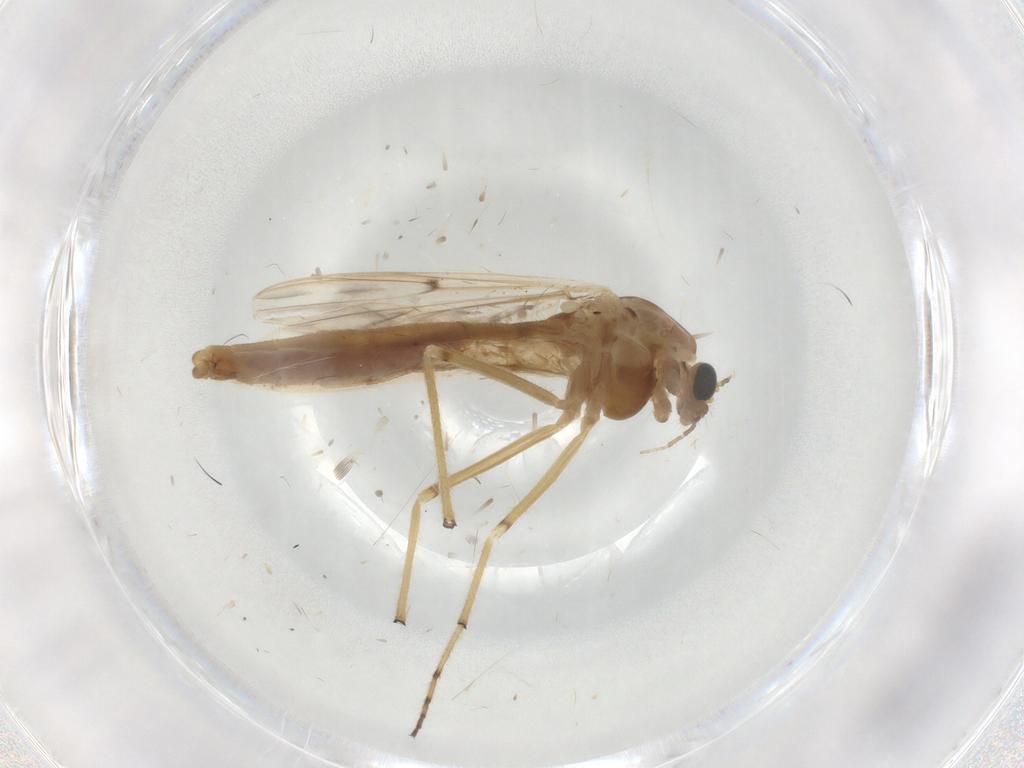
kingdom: Animalia
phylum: Arthropoda
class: Insecta
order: Diptera
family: Chironomidae
